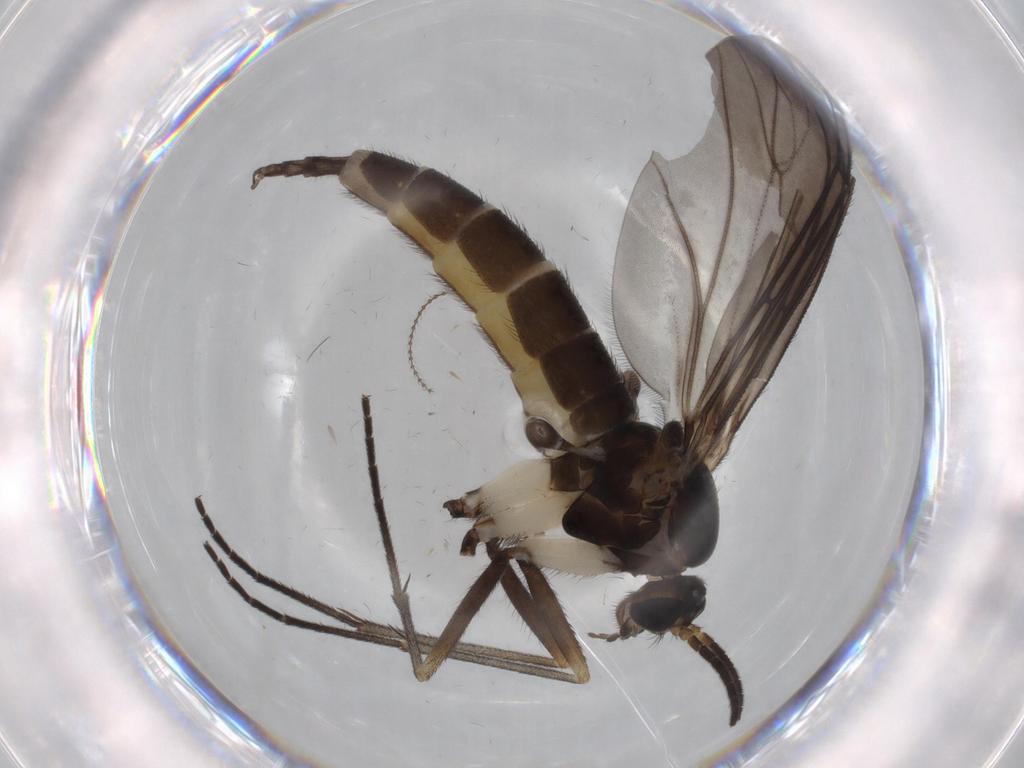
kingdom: Animalia
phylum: Arthropoda
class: Insecta
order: Diptera
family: Sciaridae
